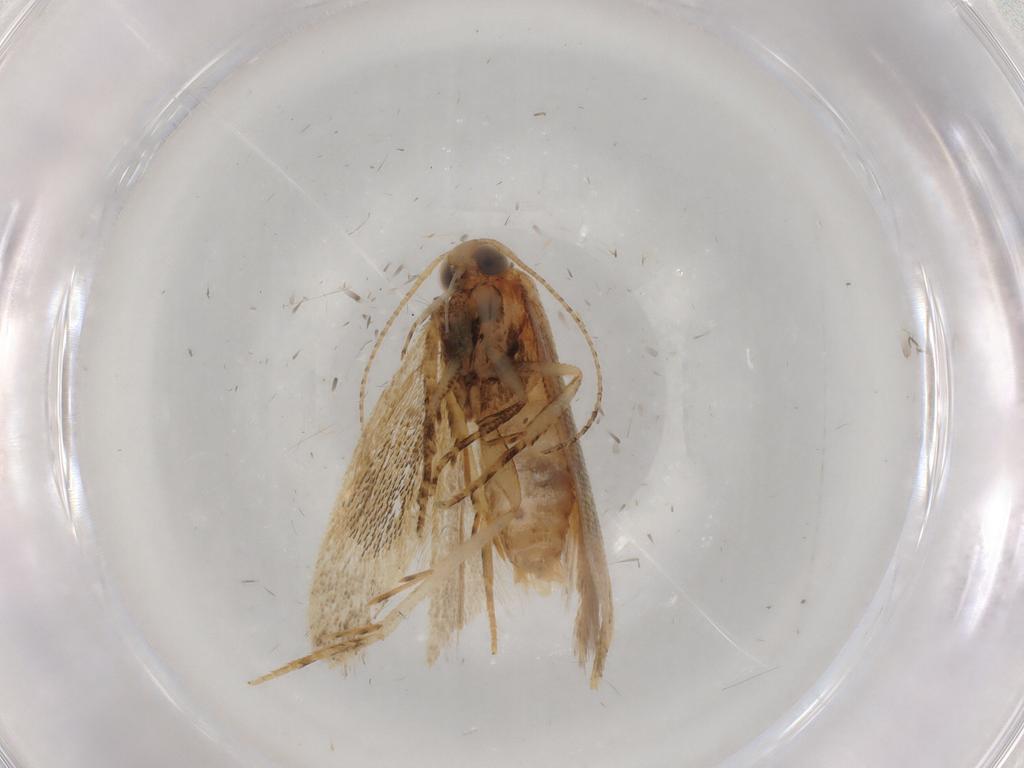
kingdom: Animalia
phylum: Arthropoda
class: Insecta
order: Lepidoptera
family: Gelechiidae
